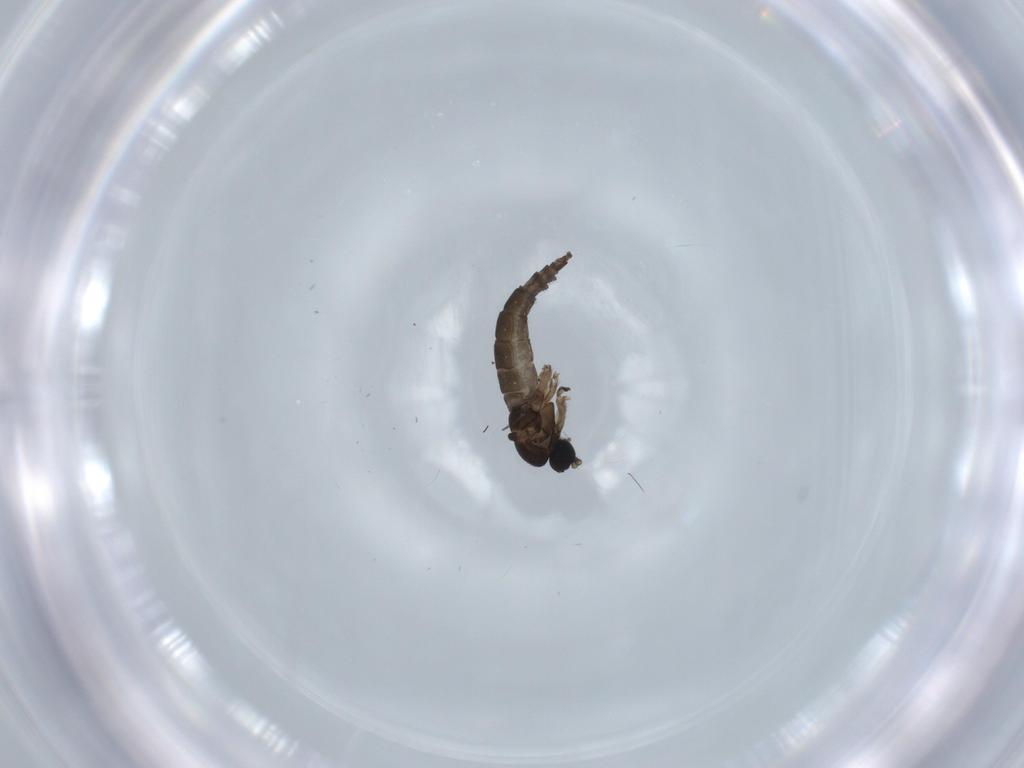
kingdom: Animalia
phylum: Arthropoda
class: Insecta
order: Diptera
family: Sciaridae
